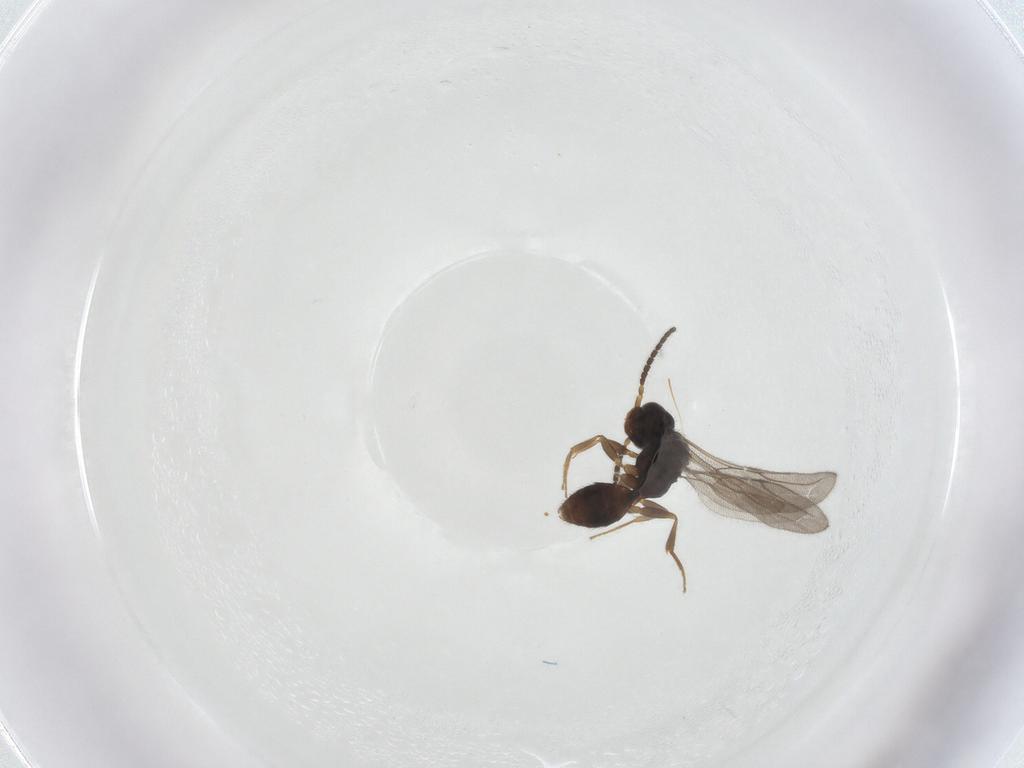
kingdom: Animalia
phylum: Arthropoda
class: Insecta
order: Hymenoptera
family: Bethylidae
